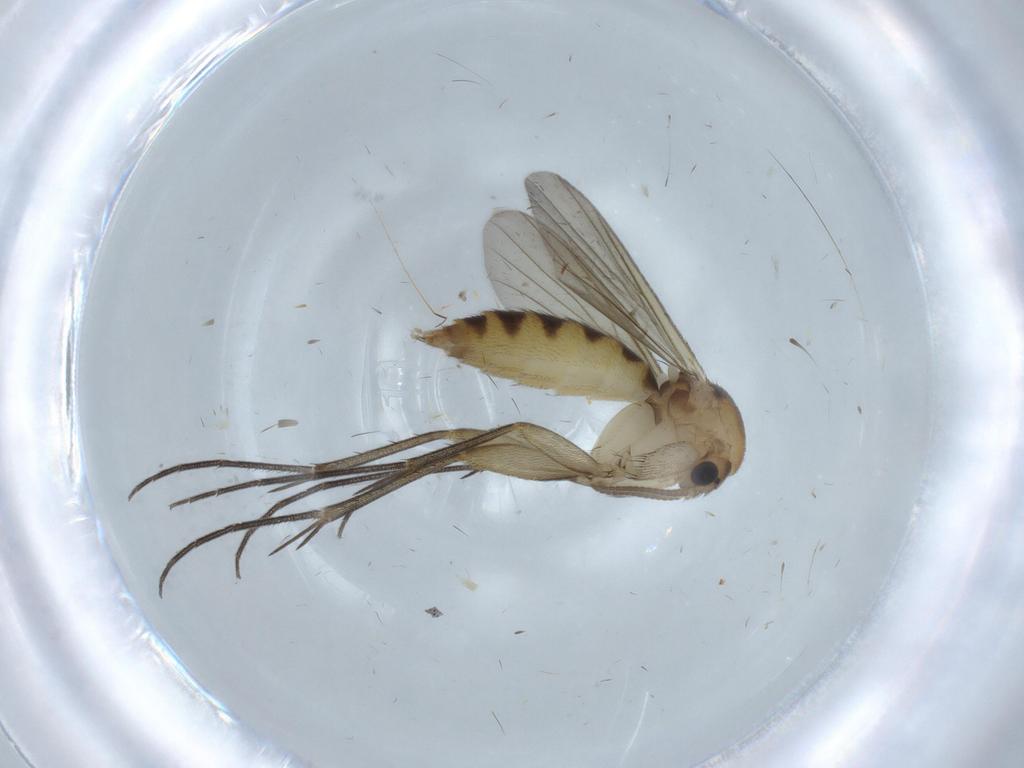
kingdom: Animalia
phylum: Arthropoda
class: Insecta
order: Diptera
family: Mycetophilidae
